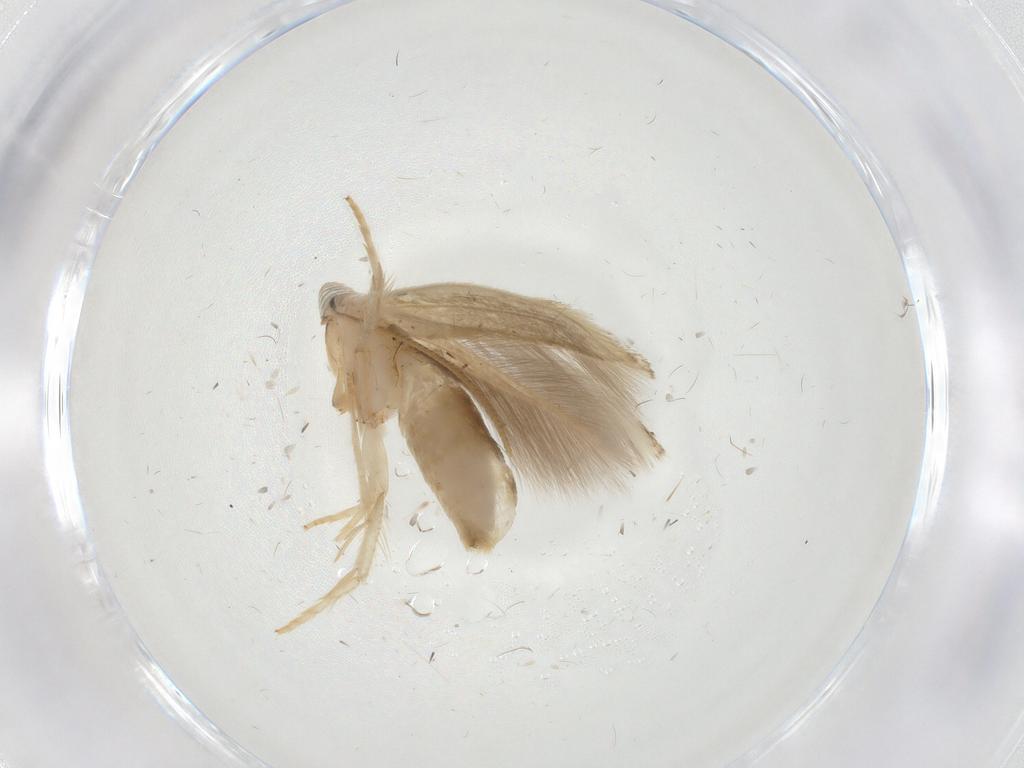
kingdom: Animalia
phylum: Arthropoda
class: Insecta
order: Lepidoptera
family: Opostegidae
